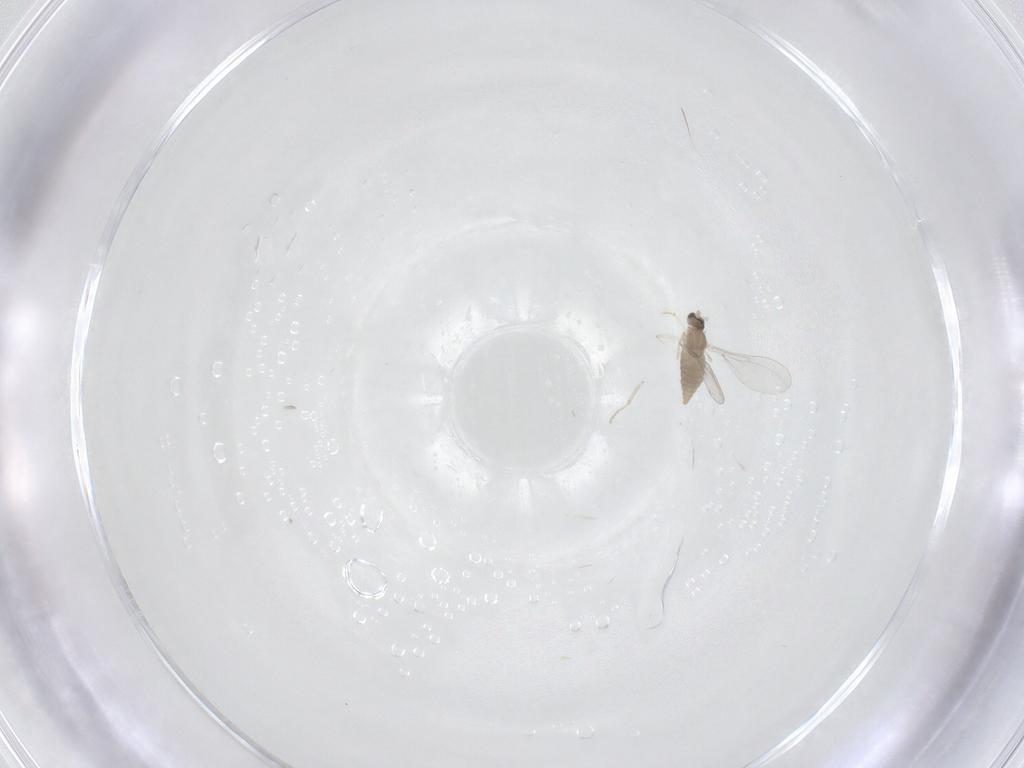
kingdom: Animalia
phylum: Arthropoda
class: Insecta
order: Diptera
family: Cecidomyiidae
